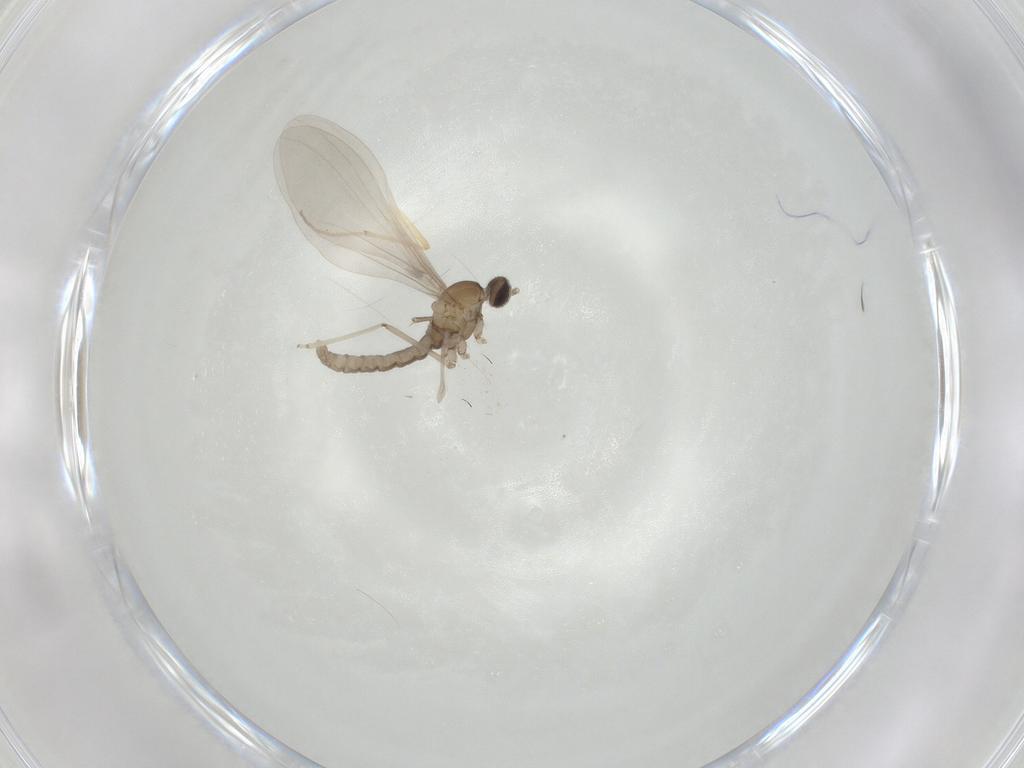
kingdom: Animalia
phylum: Arthropoda
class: Insecta
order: Diptera
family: Cecidomyiidae
